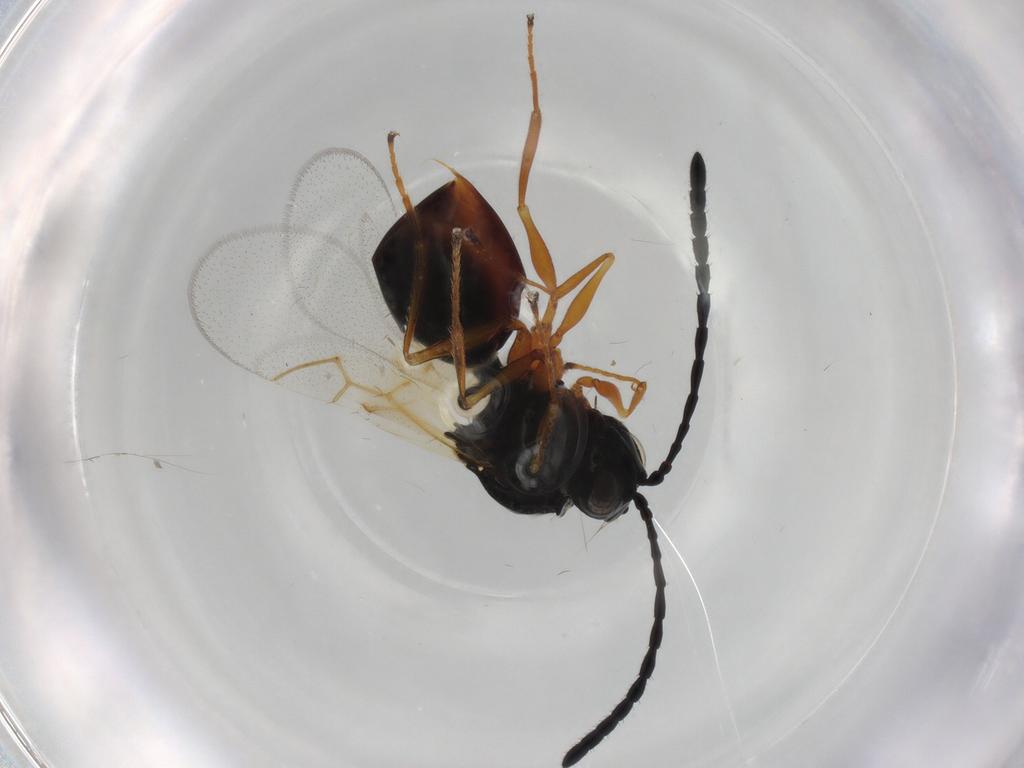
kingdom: Animalia
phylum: Arthropoda
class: Insecta
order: Hymenoptera
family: Figitidae
